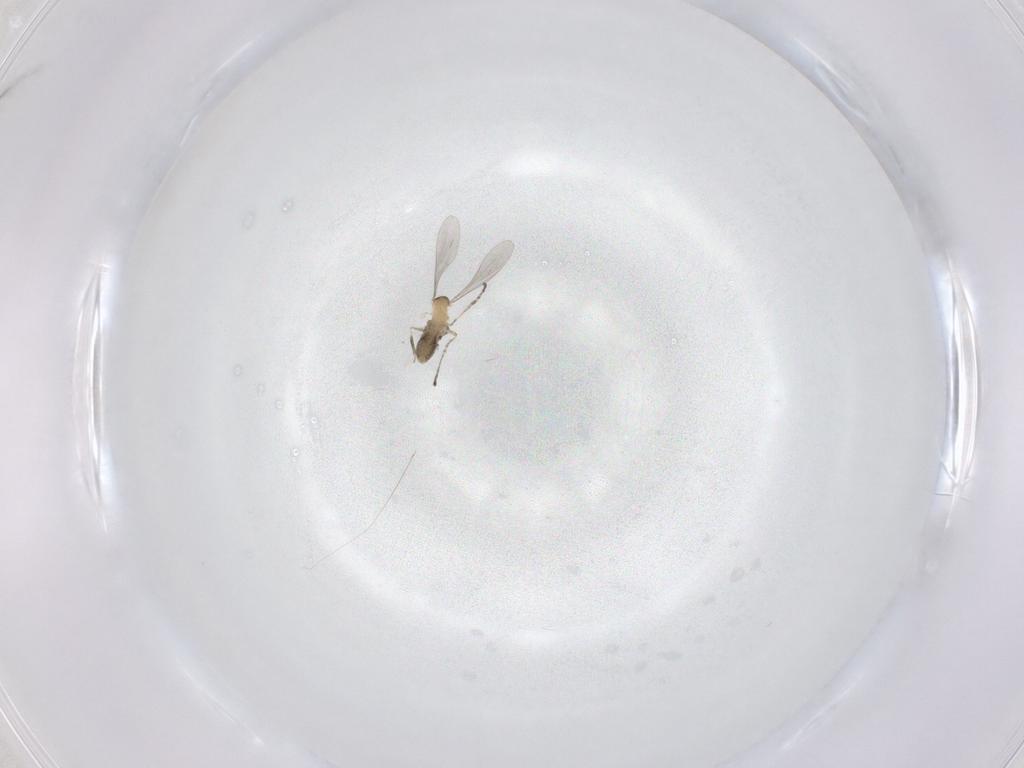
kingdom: Animalia
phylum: Arthropoda
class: Insecta
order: Diptera
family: Cecidomyiidae
